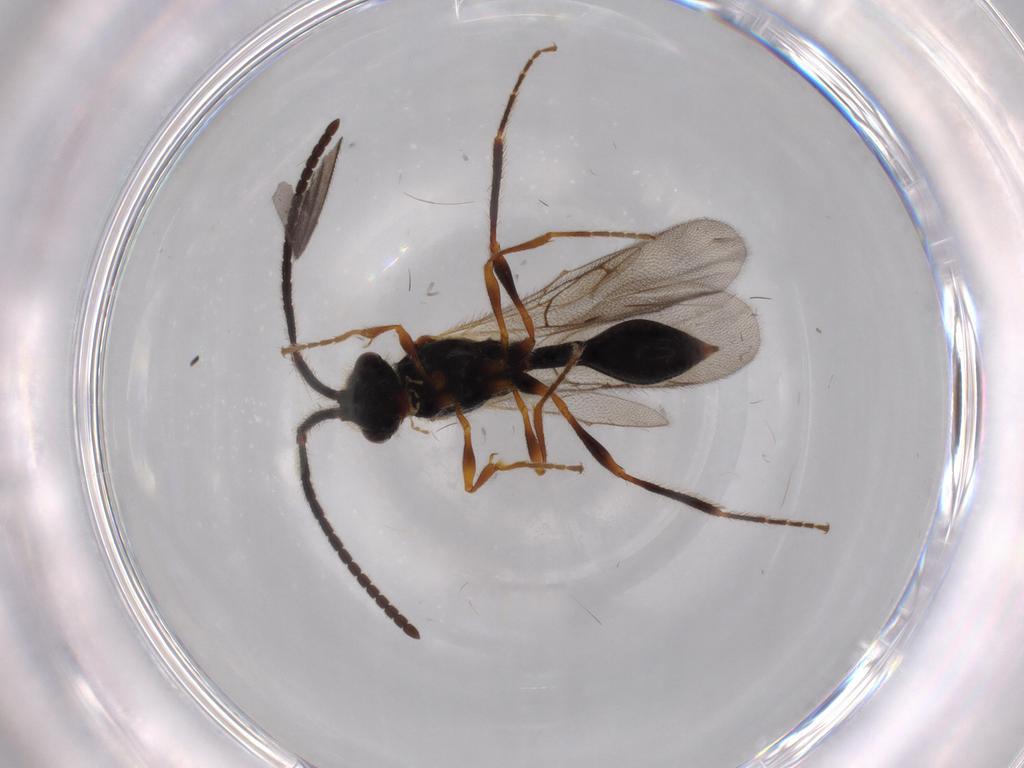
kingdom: Animalia
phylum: Arthropoda
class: Insecta
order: Hymenoptera
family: Diapriidae
